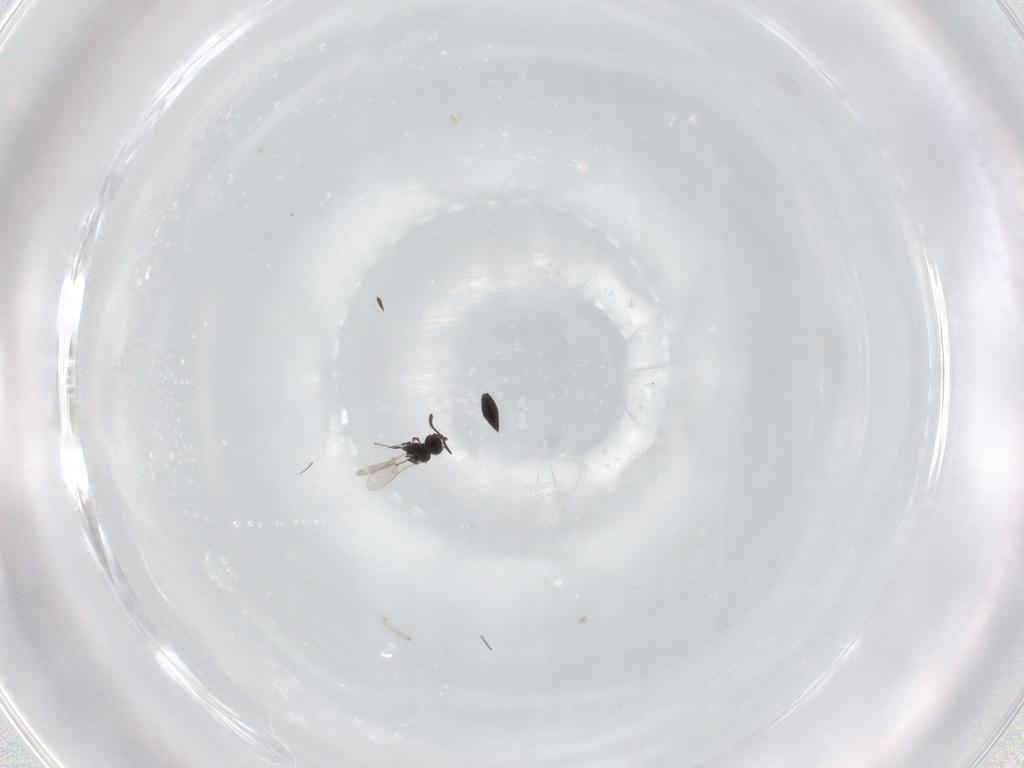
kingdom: Animalia
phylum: Arthropoda
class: Insecta
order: Hymenoptera
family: Scelionidae
